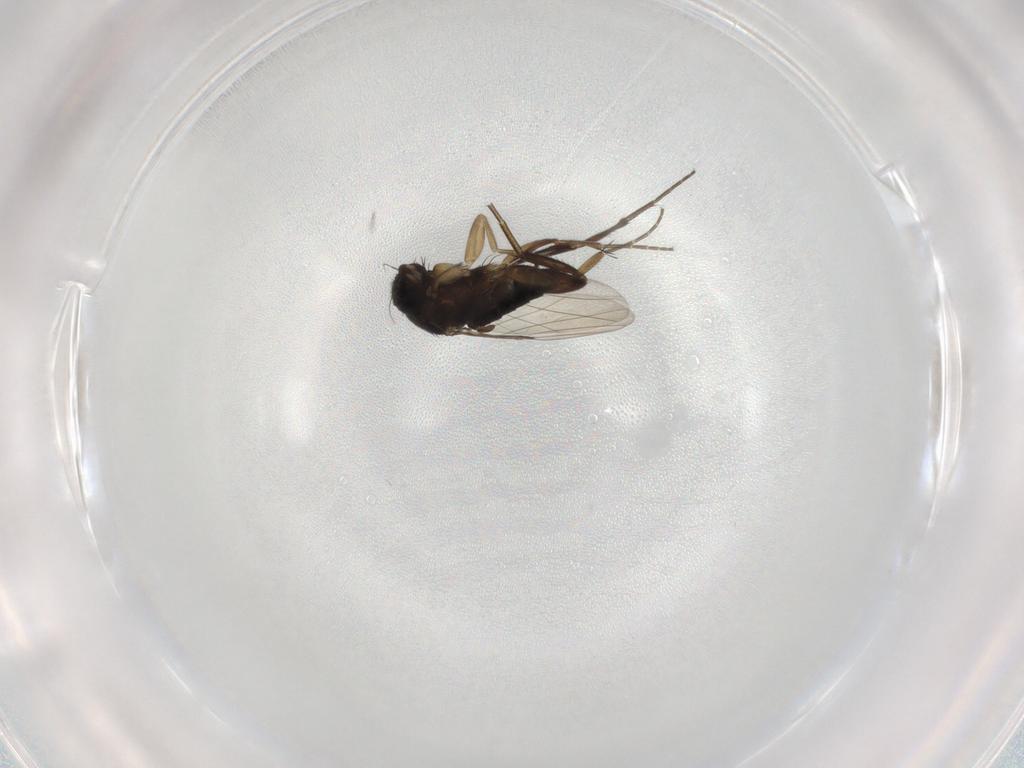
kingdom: Animalia
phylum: Arthropoda
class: Insecta
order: Diptera
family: Phoridae
